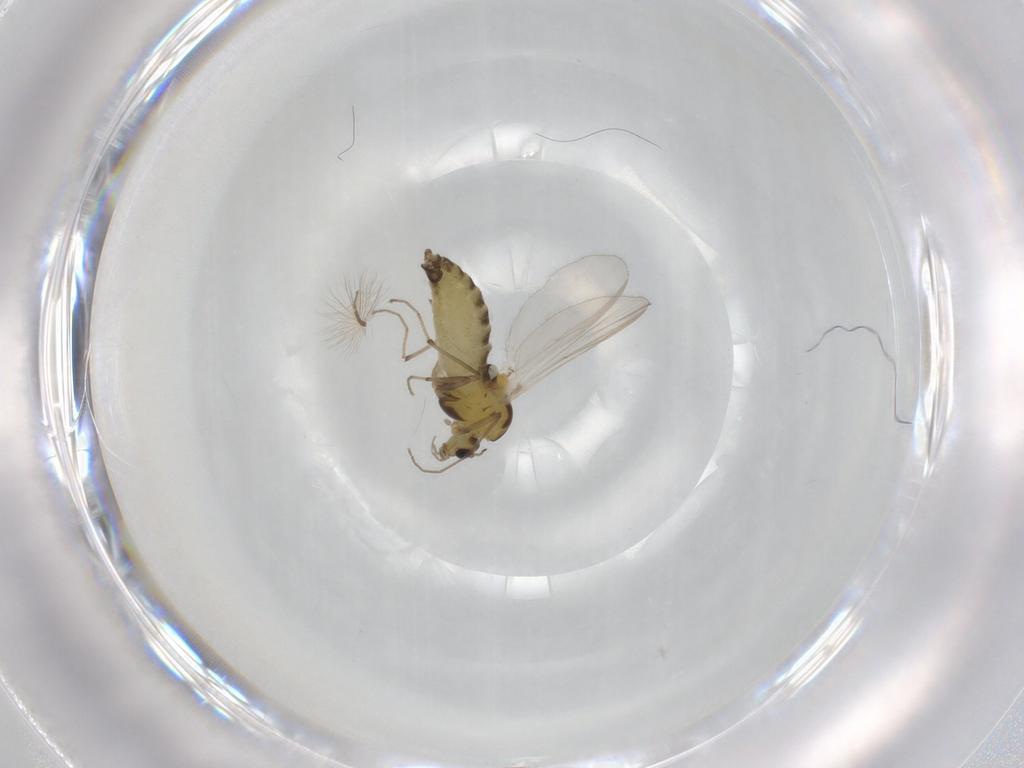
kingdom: Animalia
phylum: Arthropoda
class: Insecta
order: Diptera
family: Chironomidae
